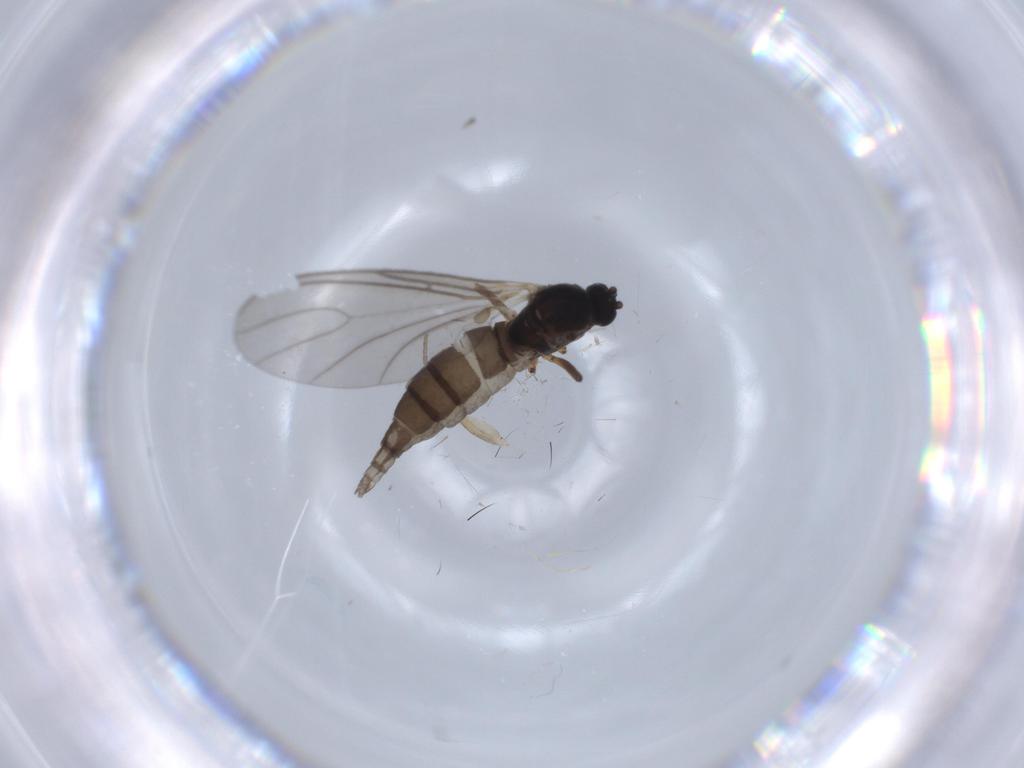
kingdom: Animalia
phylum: Arthropoda
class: Insecta
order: Diptera
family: Sciaridae
